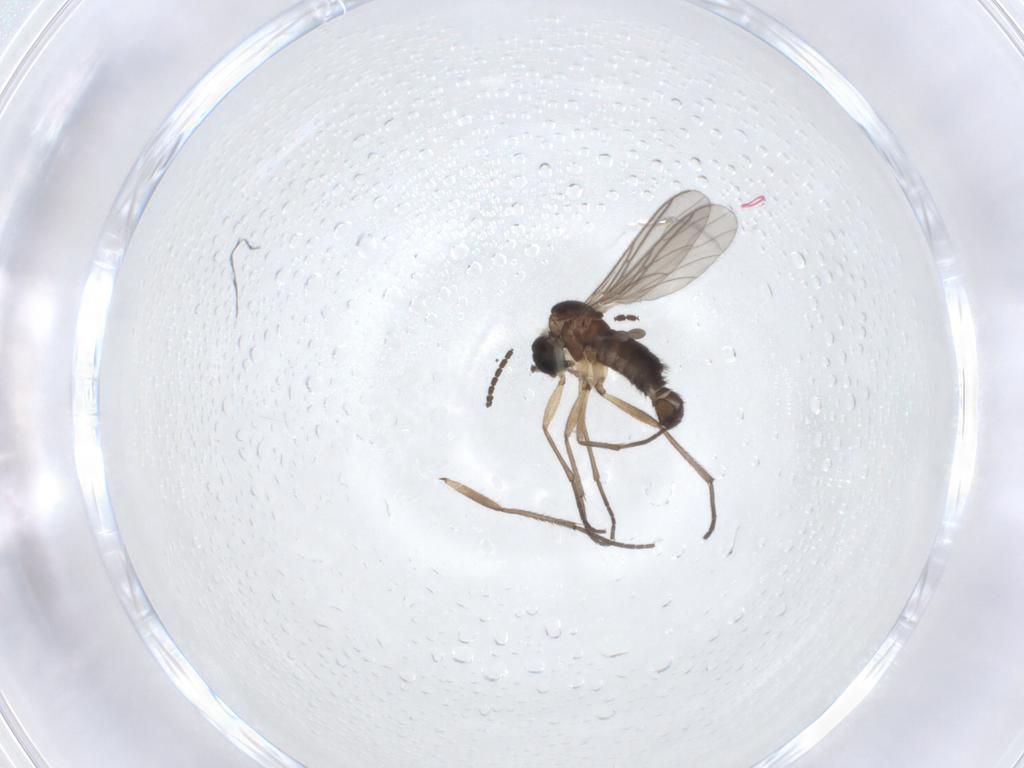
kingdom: Animalia
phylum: Arthropoda
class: Insecta
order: Diptera
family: Sciaridae
